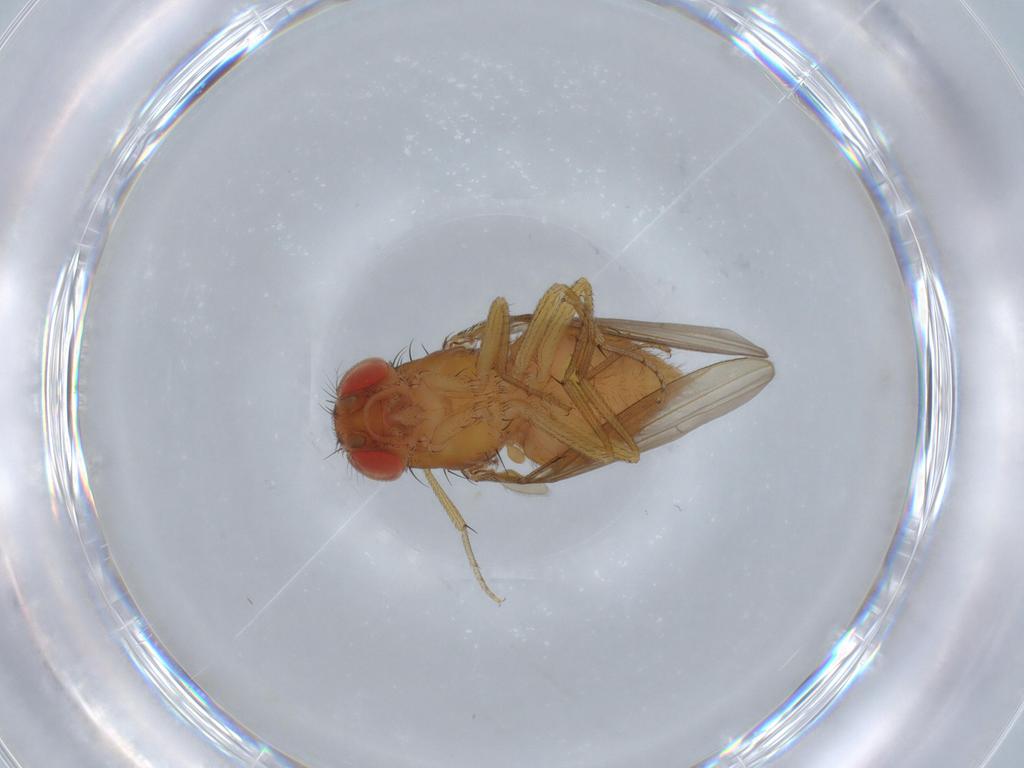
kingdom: Animalia
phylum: Arthropoda
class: Insecta
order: Diptera
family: Drosophilidae
